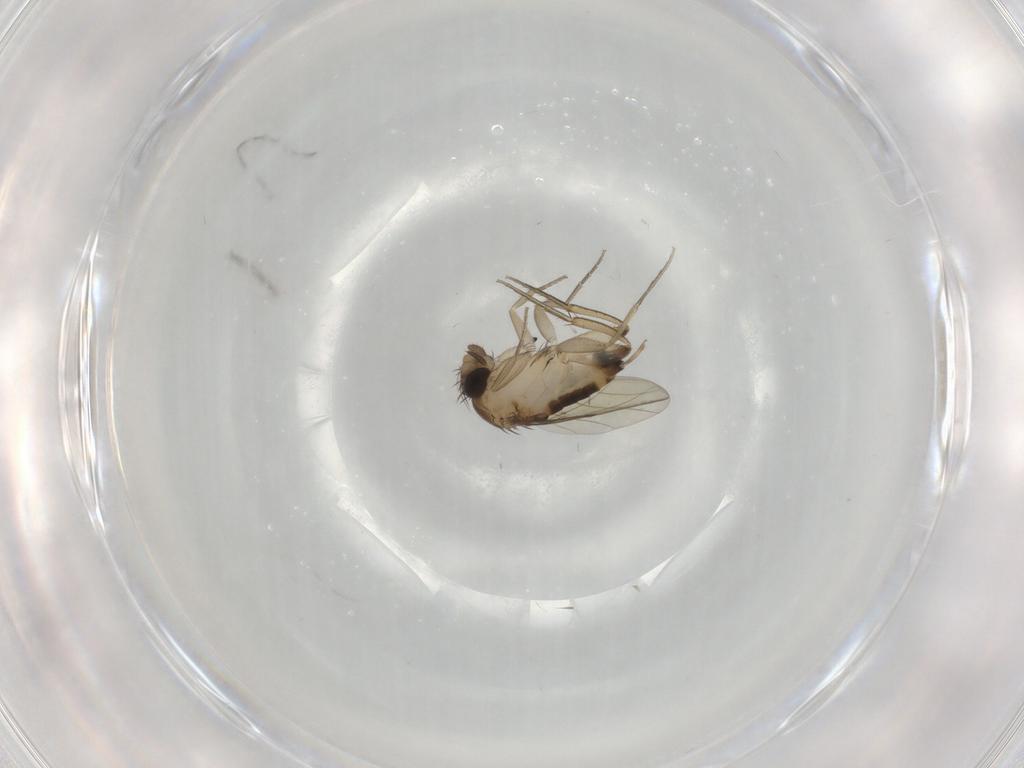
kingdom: Animalia
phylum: Arthropoda
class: Insecta
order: Diptera
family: Phoridae
